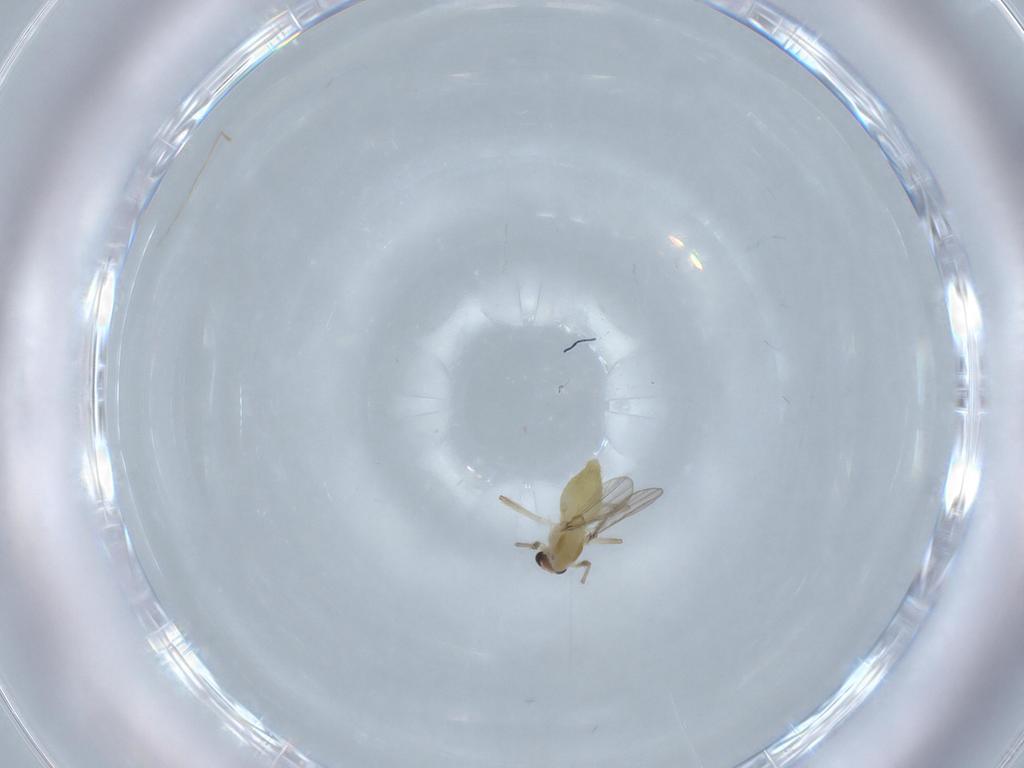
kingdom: Animalia
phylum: Arthropoda
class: Insecta
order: Diptera
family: Chironomidae
